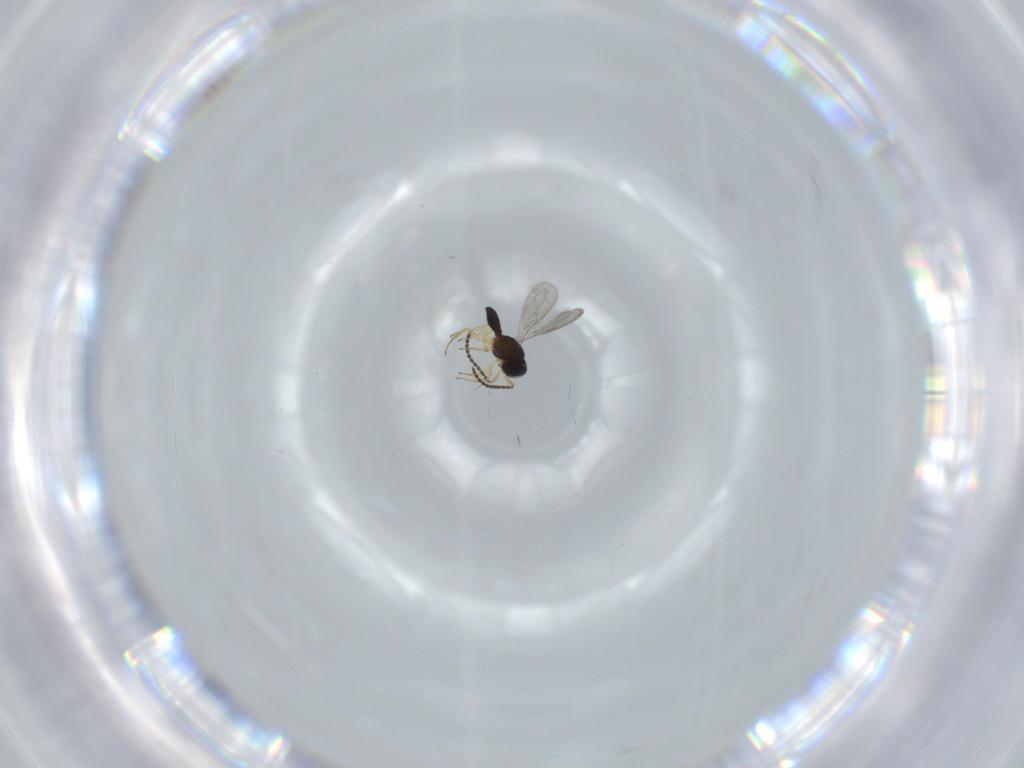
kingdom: Animalia
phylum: Arthropoda
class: Insecta
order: Hymenoptera
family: Scelionidae
